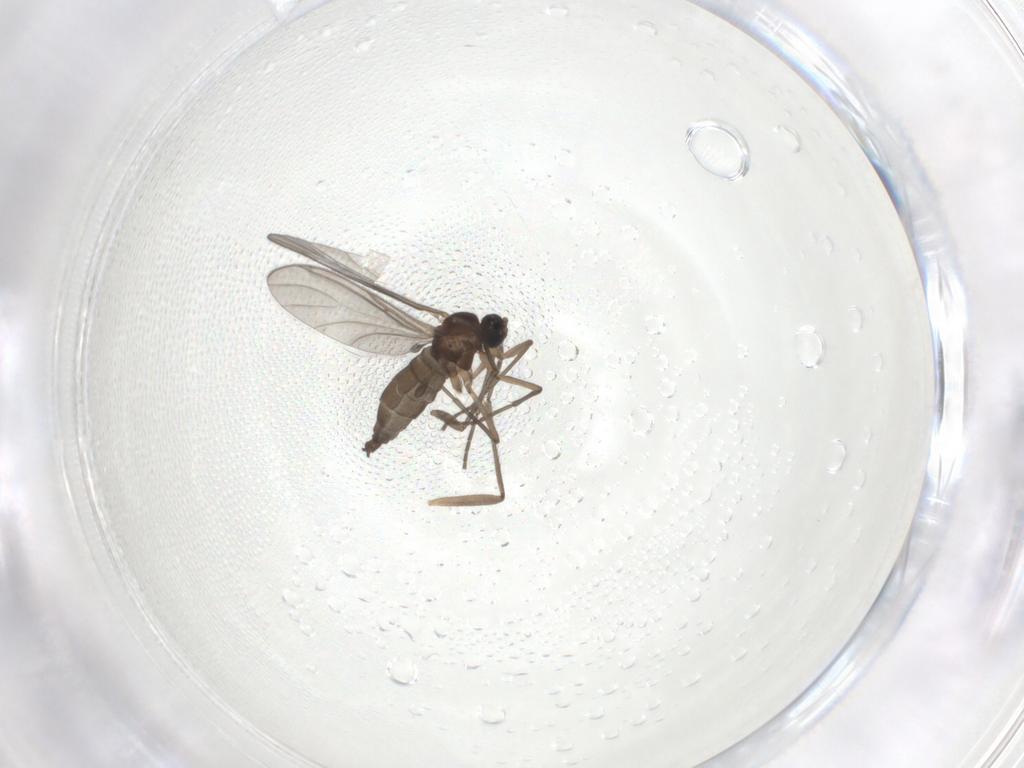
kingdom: Animalia
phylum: Arthropoda
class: Insecta
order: Diptera
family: Sciaridae
